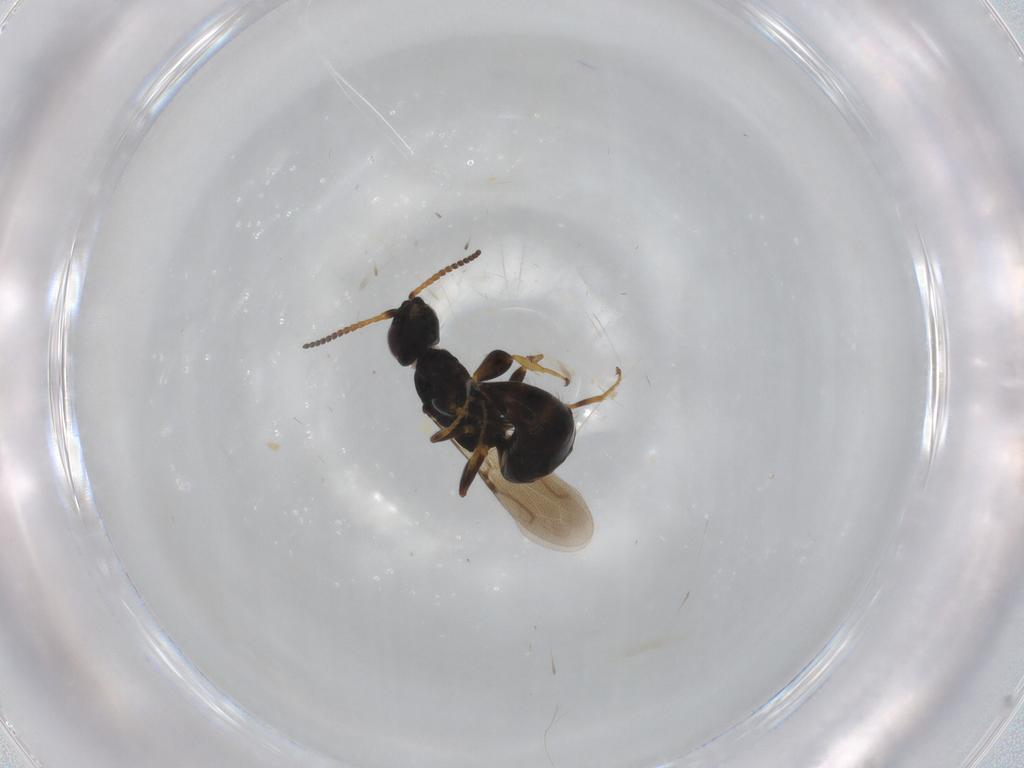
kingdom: Animalia
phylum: Arthropoda
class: Insecta
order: Hymenoptera
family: Bethylidae
